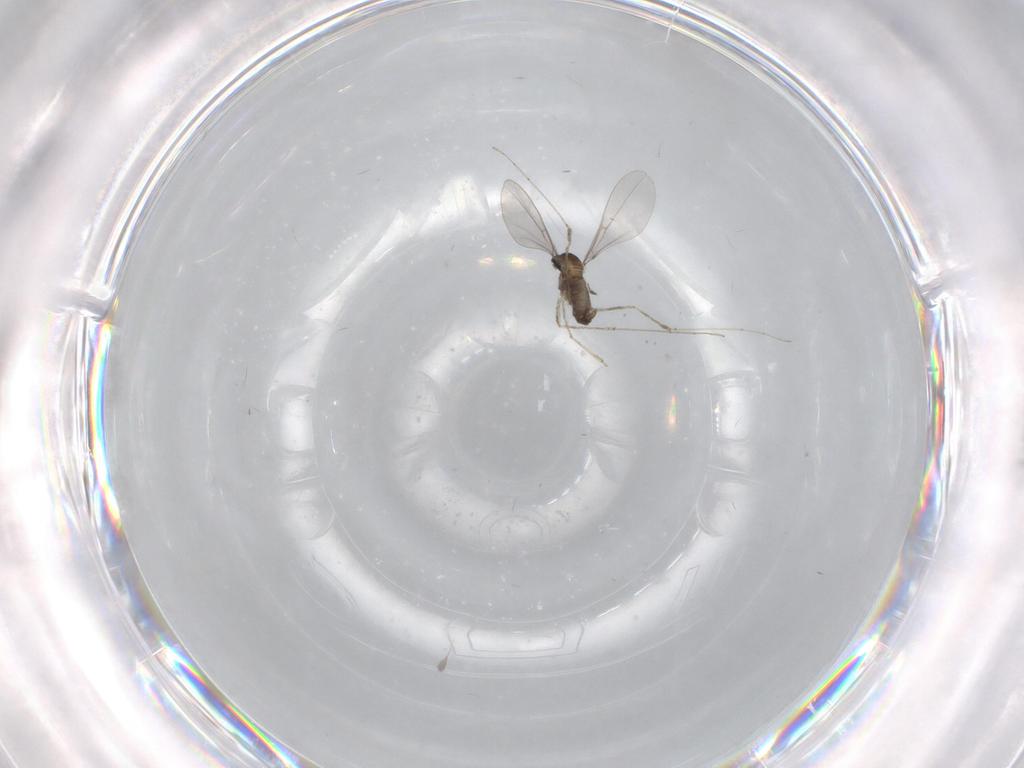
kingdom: Animalia
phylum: Arthropoda
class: Insecta
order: Diptera
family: Cecidomyiidae
